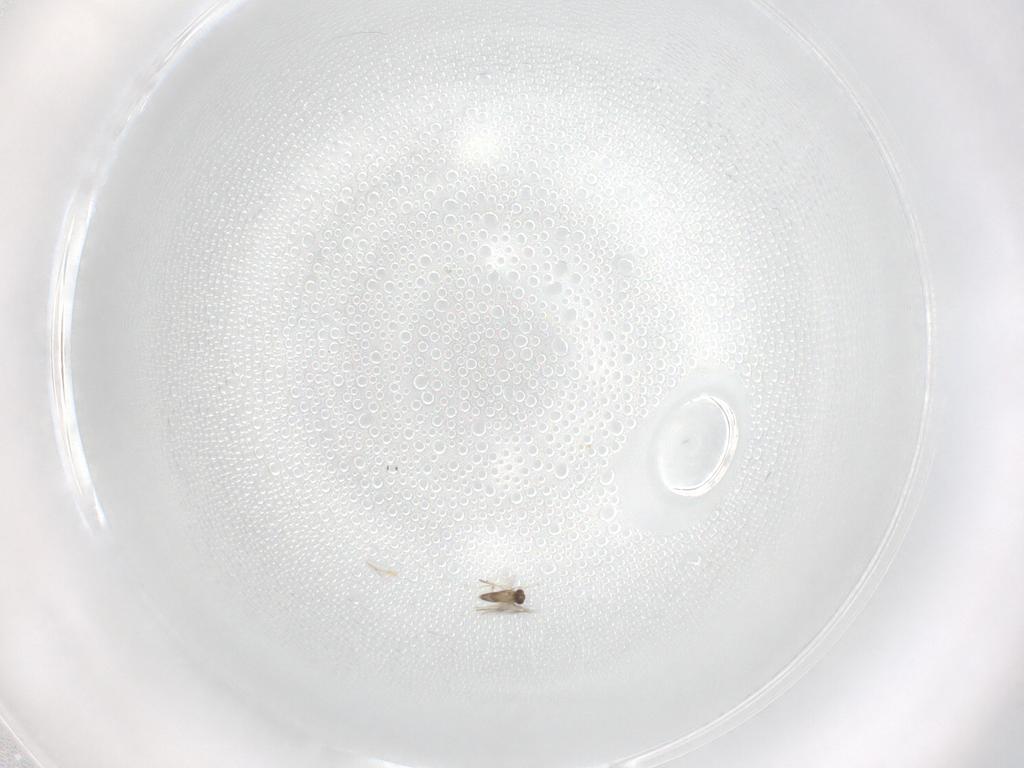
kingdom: Animalia
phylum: Arthropoda
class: Insecta
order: Hymenoptera
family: Mymaridae
